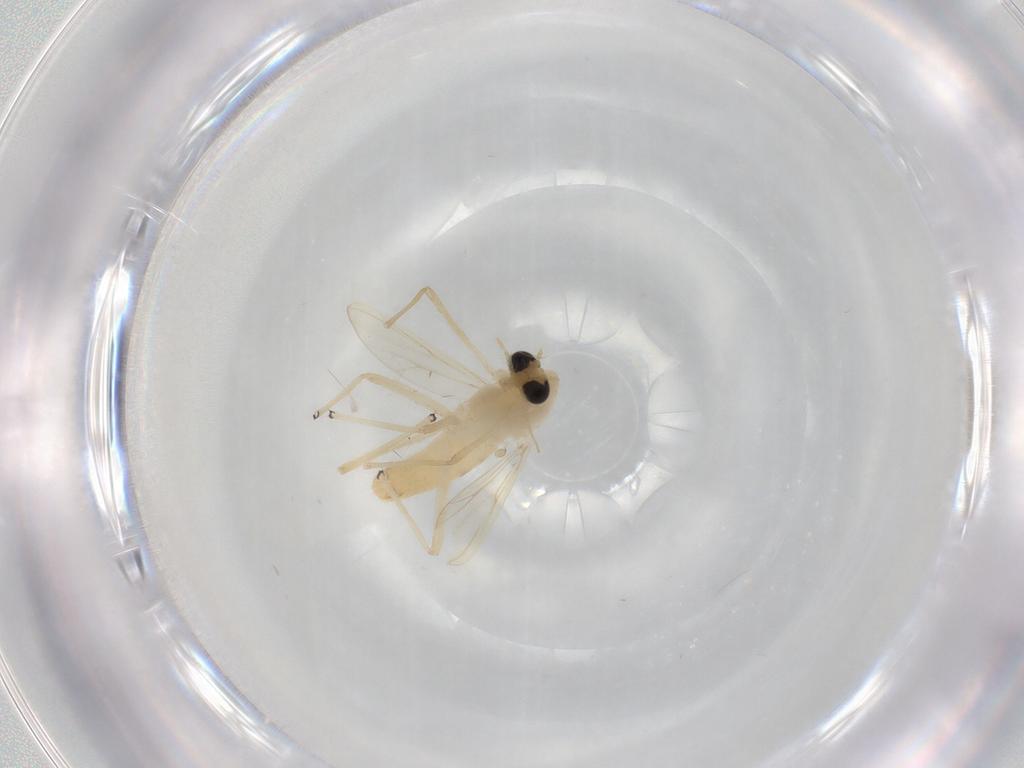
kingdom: Animalia
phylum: Arthropoda
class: Insecta
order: Diptera
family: Chironomidae
